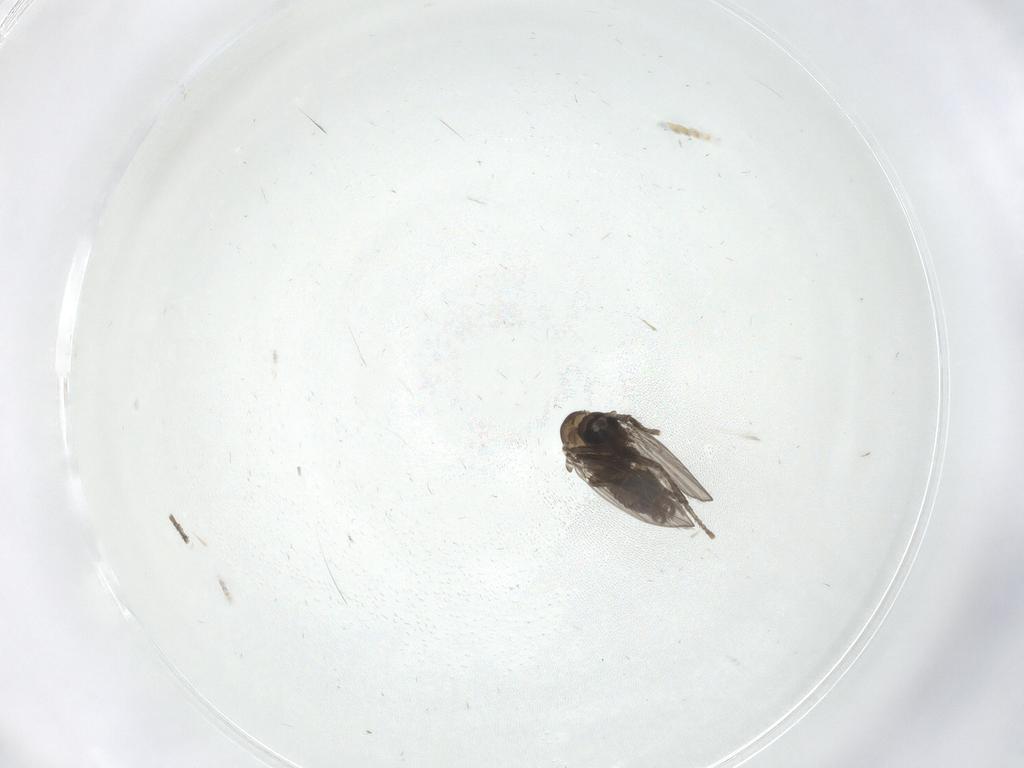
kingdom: Animalia
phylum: Arthropoda
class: Insecta
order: Diptera
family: Psychodidae
